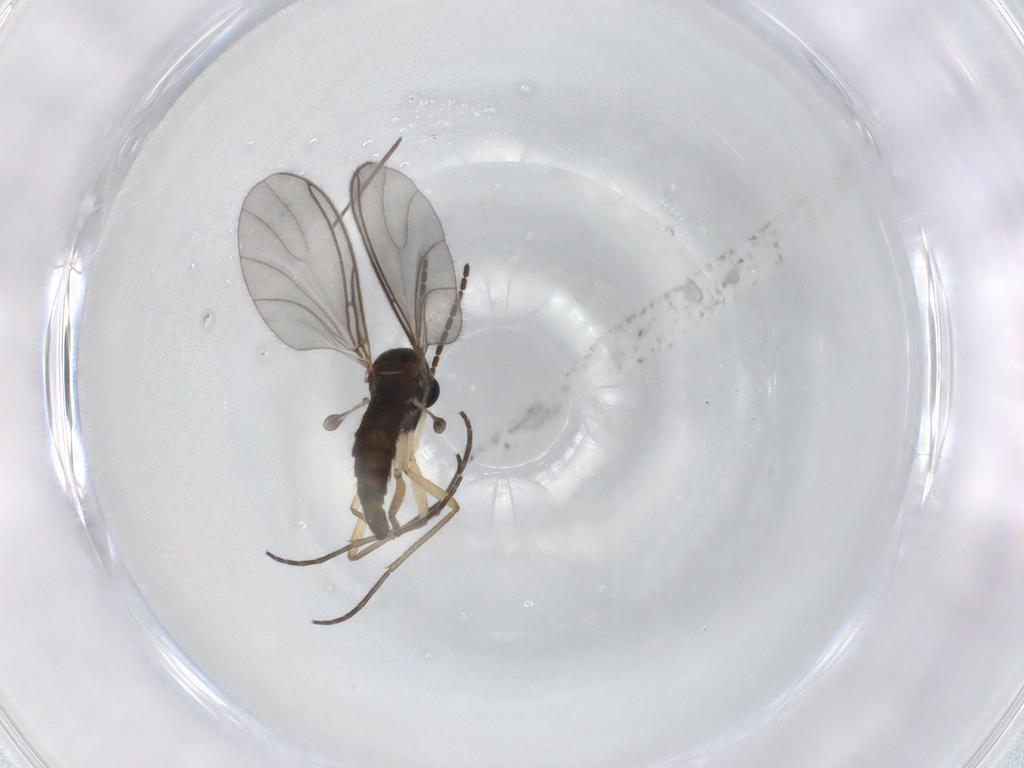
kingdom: Animalia
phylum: Arthropoda
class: Insecta
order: Diptera
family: Sciaridae
